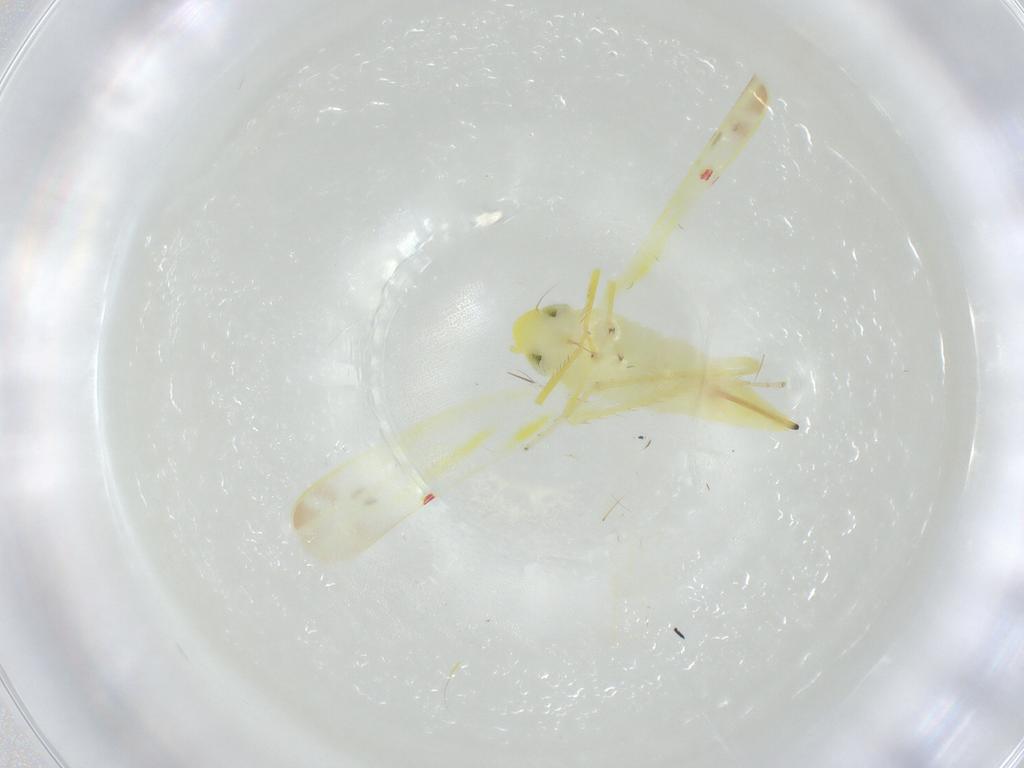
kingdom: Animalia
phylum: Arthropoda
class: Insecta
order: Hemiptera
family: Cicadellidae
